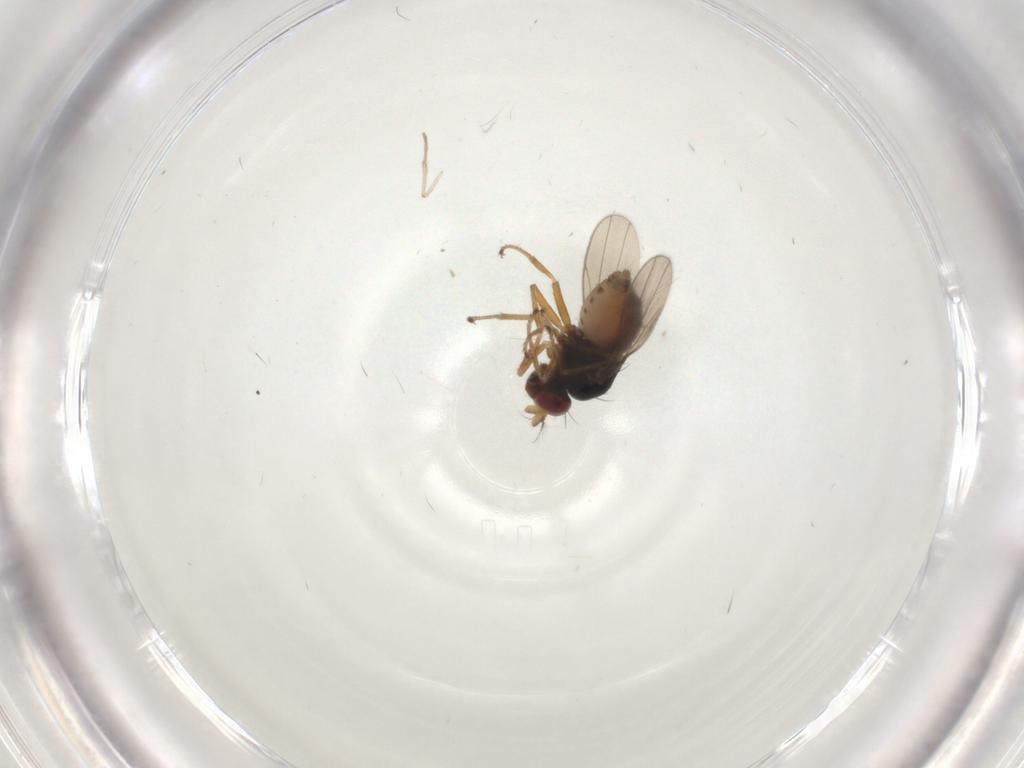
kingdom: Animalia
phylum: Arthropoda
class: Insecta
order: Diptera
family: Ephydridae
